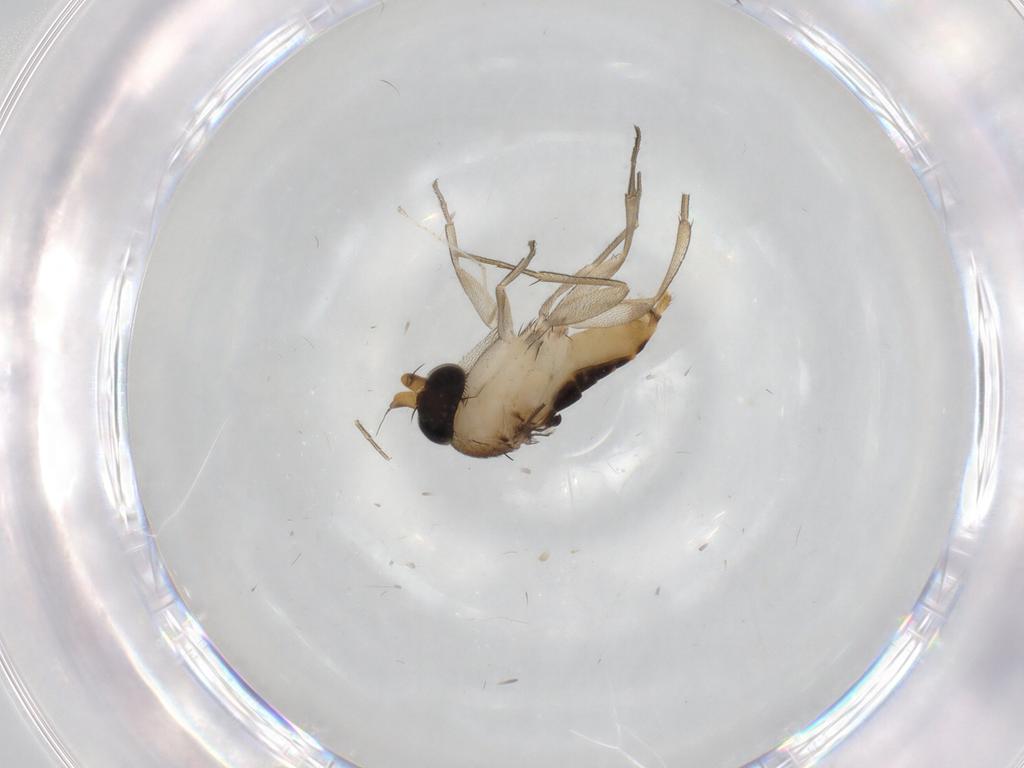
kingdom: Animalia
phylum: Arthropoda
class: Insecta
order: Diptera
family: Phoridae
